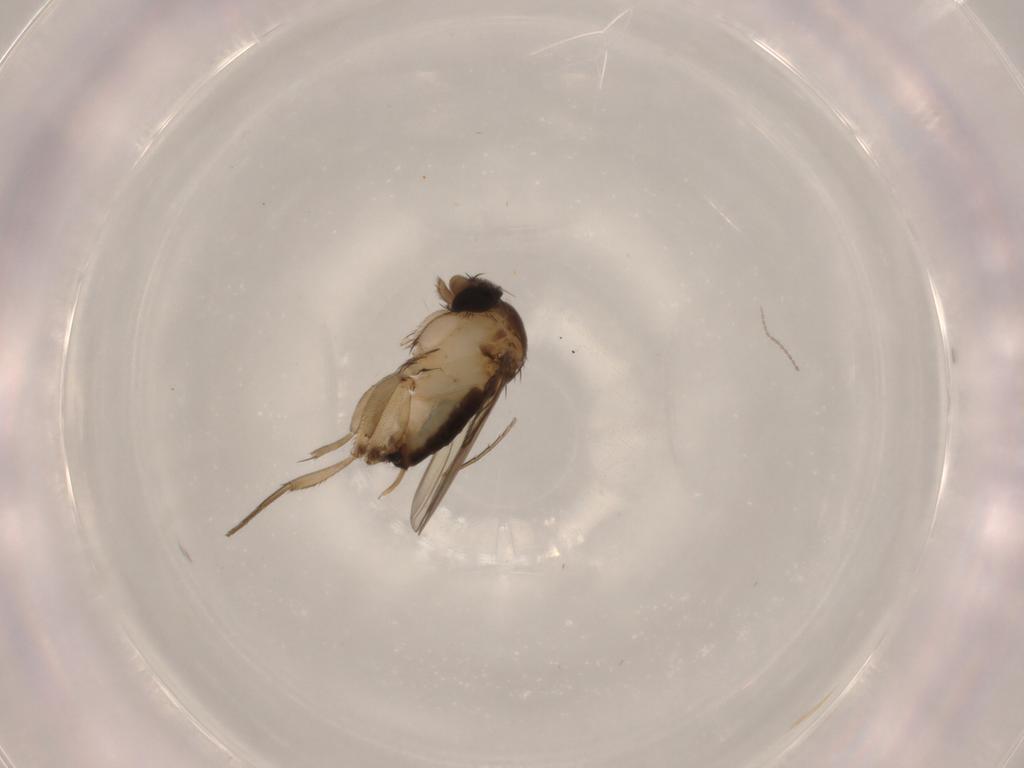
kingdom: Animalia
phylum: Arthropoda
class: Insecta
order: Diptera
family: Phoridae
